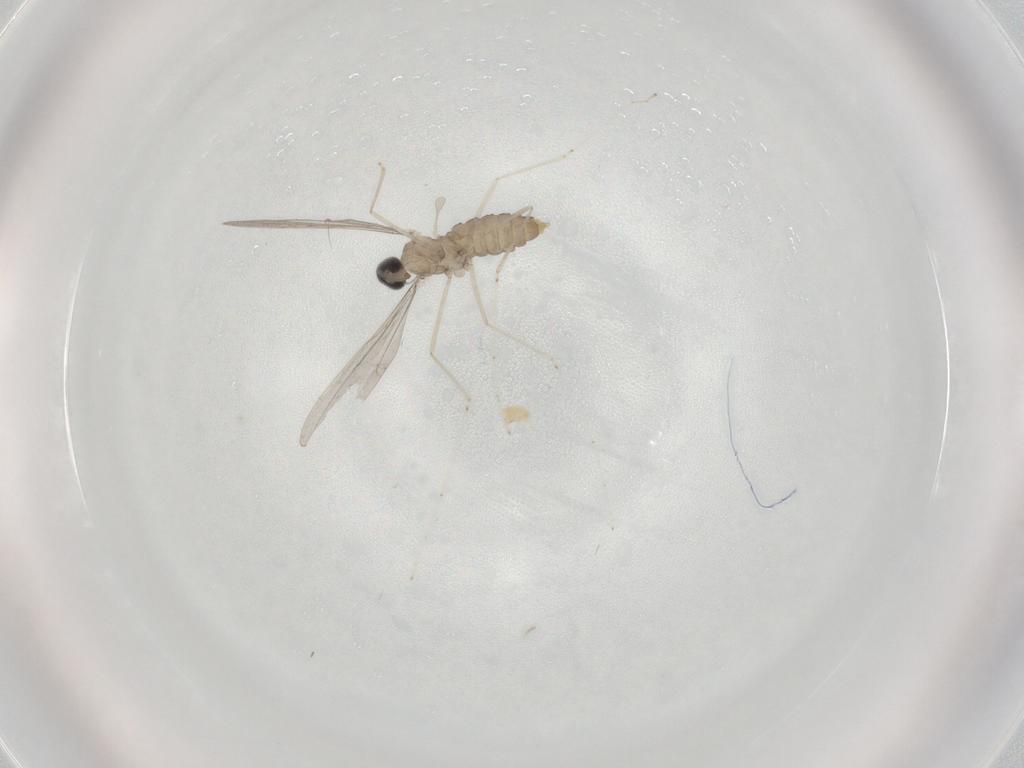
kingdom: Animalia
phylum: Arthropoda
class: Insecta
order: Diptera
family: Cecidomyiidae
